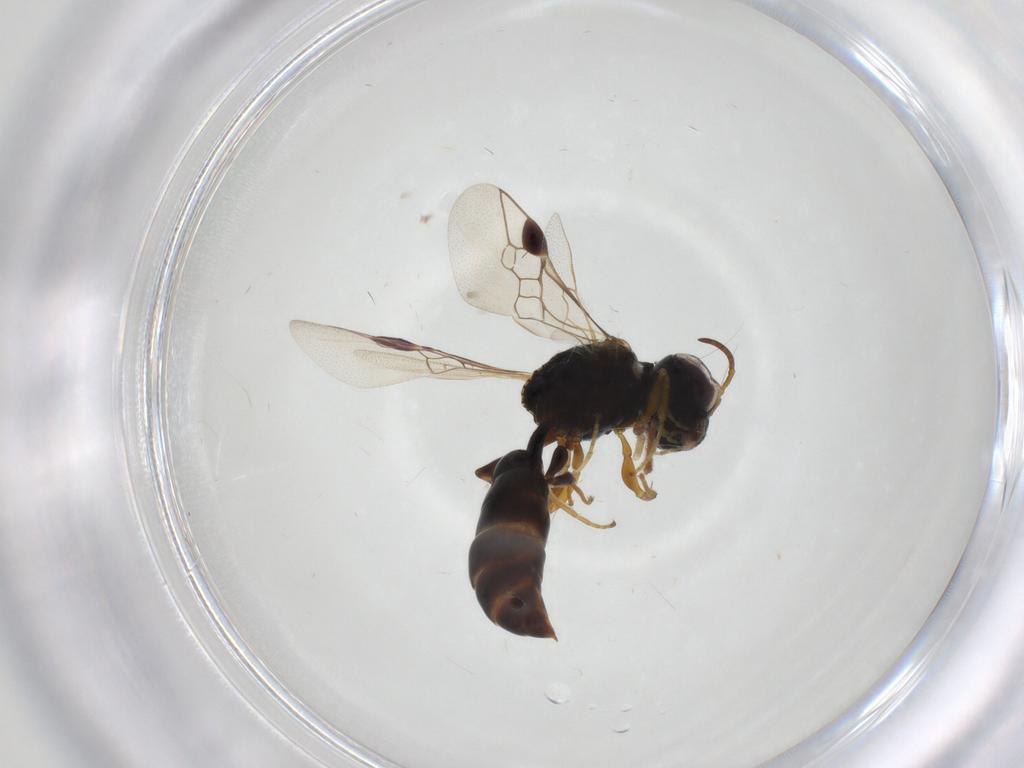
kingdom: Animalia
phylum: Arthropoda
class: Insecta
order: Hymenoptera
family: Pemphredonidae
